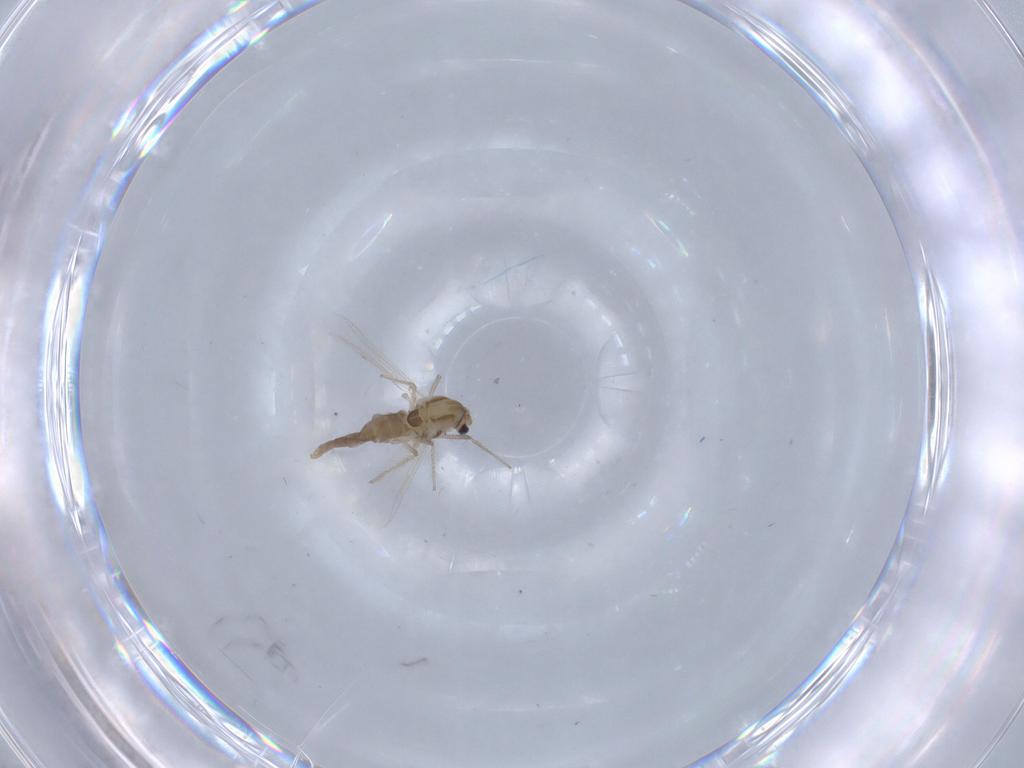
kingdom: Animalia
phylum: Arthropoda
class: Insecta
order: Diptera
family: Chironomidae
